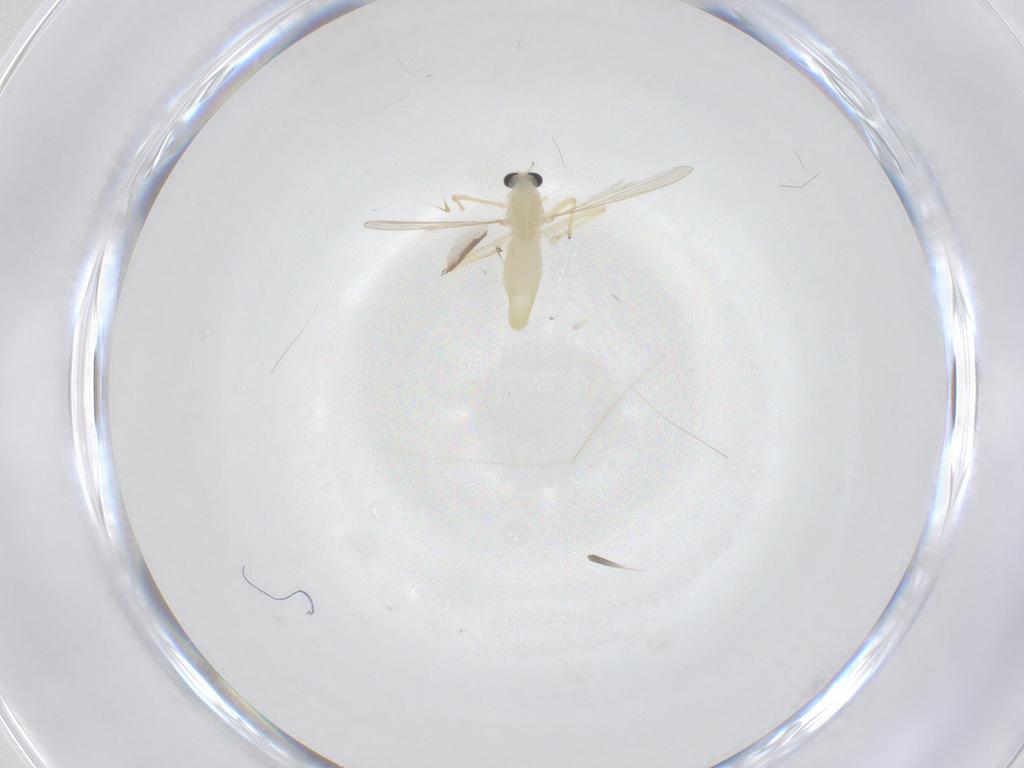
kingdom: Animalia
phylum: Arthropoda
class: Insecta
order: Diptera
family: Chironomidae
